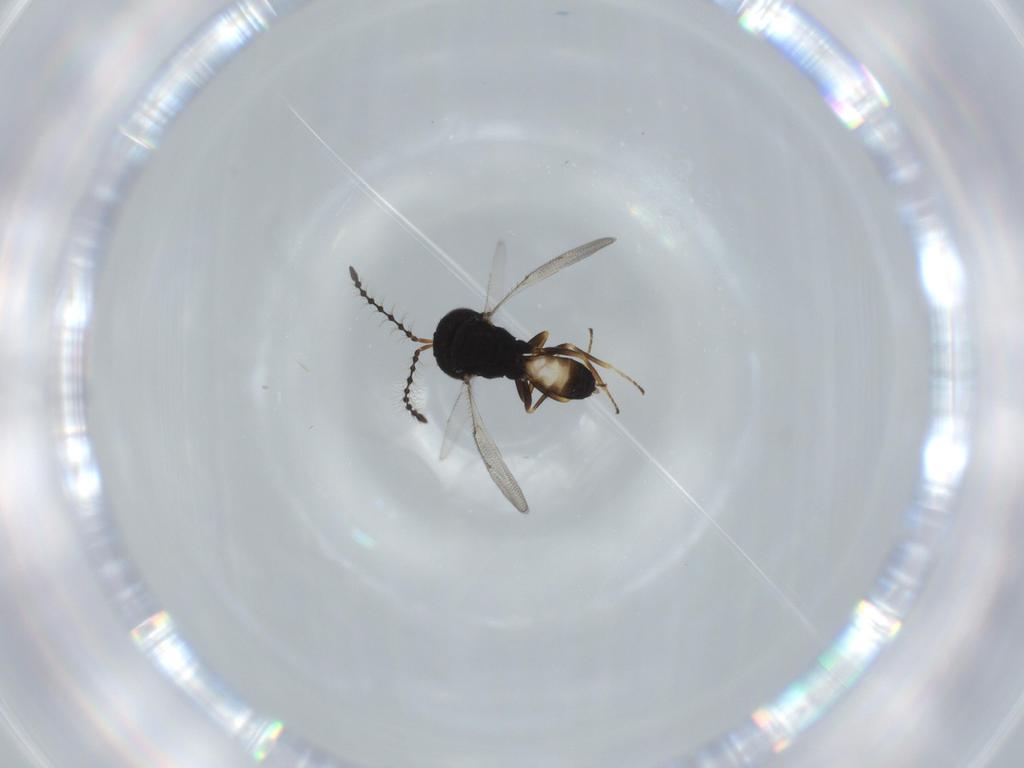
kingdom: Animalia
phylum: Arthropoda
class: Insecta
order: Hymenoptera
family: Pteromalidae
